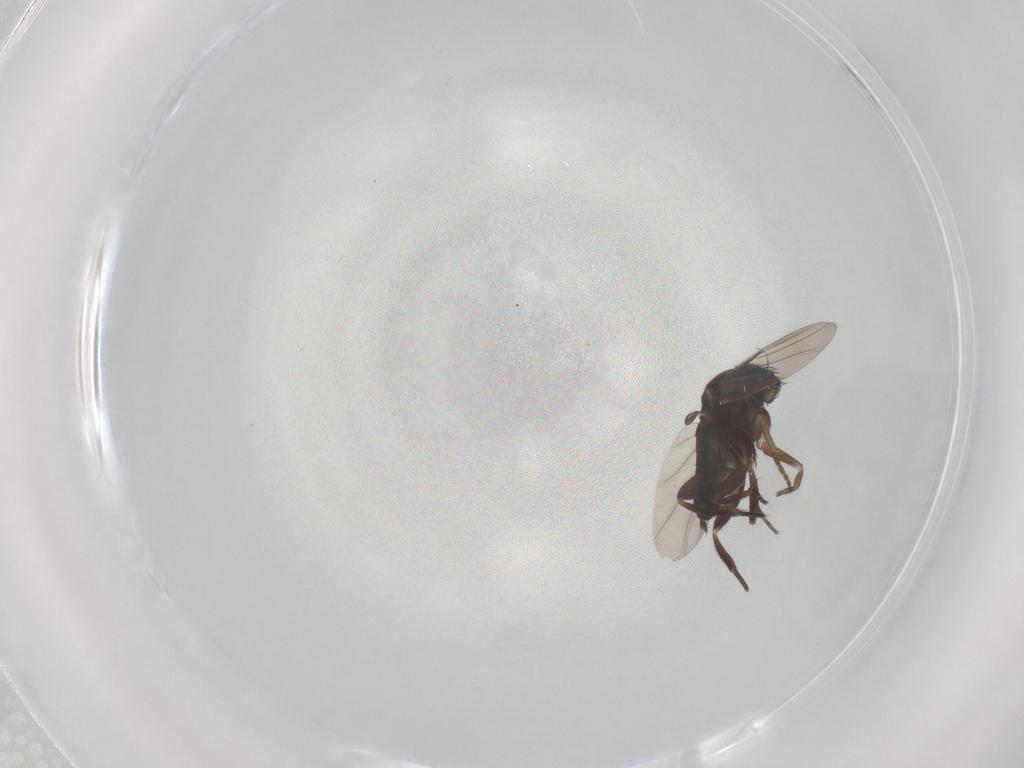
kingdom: Animalia
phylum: Arthropoda
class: Insecta
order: Diptera
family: Phoridae
